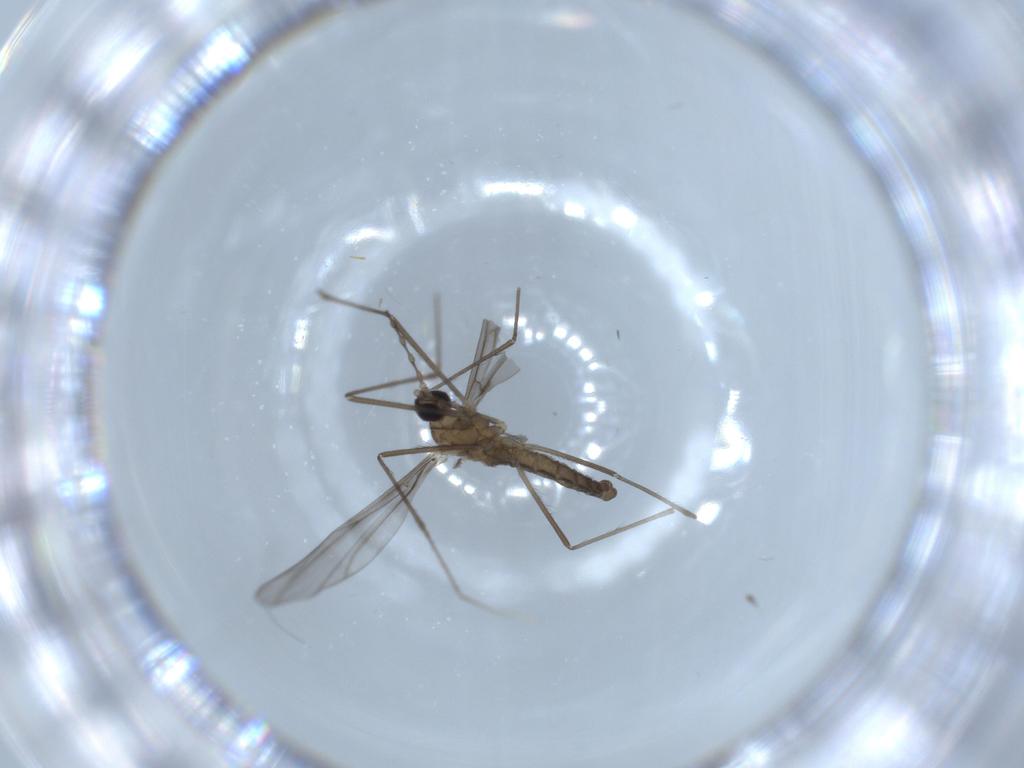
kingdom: Animalia
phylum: Arthropoda
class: Insecta
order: Diptera
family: Cecidomyiidae
